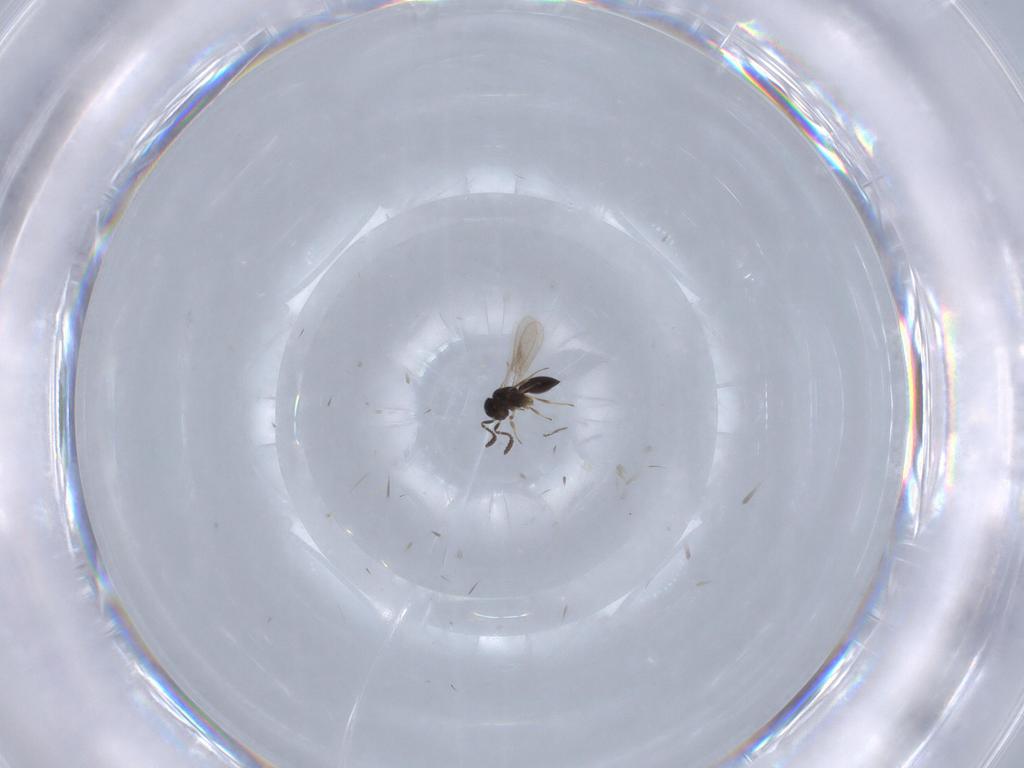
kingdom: Animalia
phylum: Arthropoda
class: Insecta
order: Hymenoptera
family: Scelionidae
